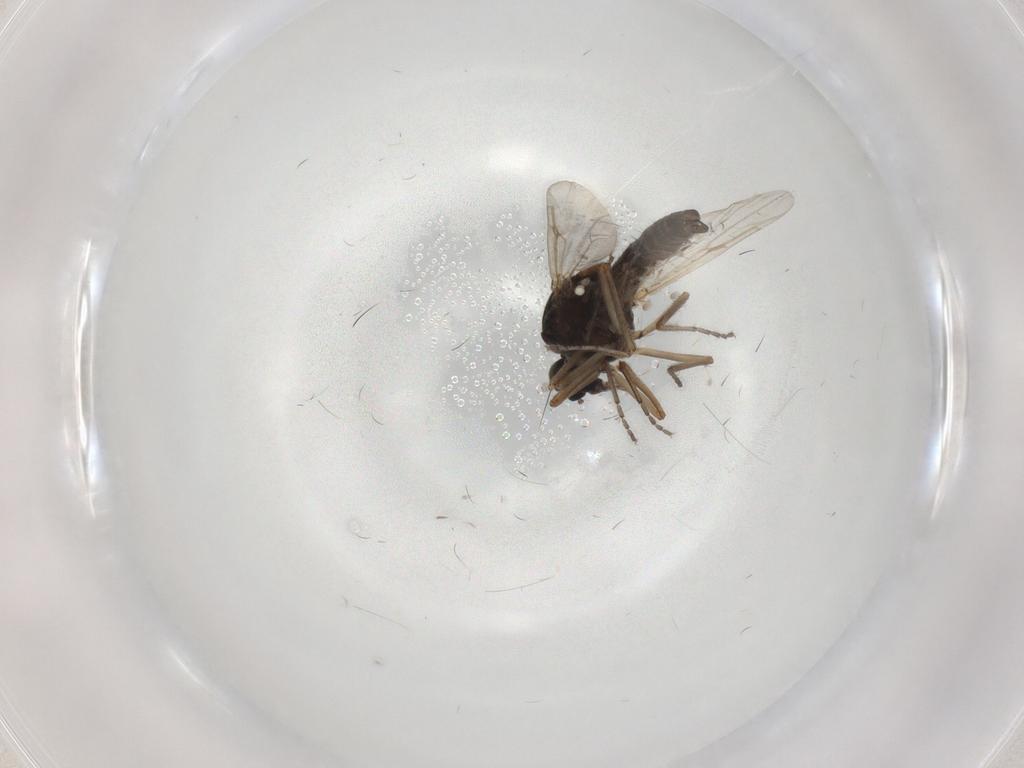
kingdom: Animalia
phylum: Arthropoda
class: Insecta
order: Diptera
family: Ceratopogonidae
